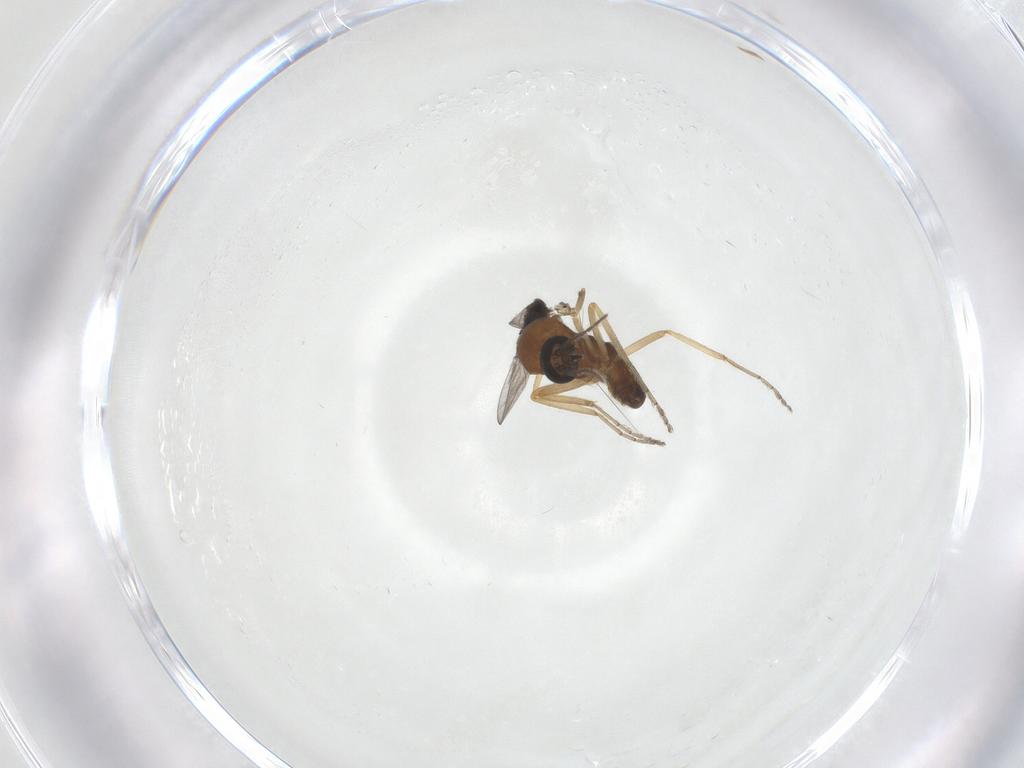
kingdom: Animalia
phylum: Arthropoda
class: Insecta
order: Diptera
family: Ceratopogonidae
